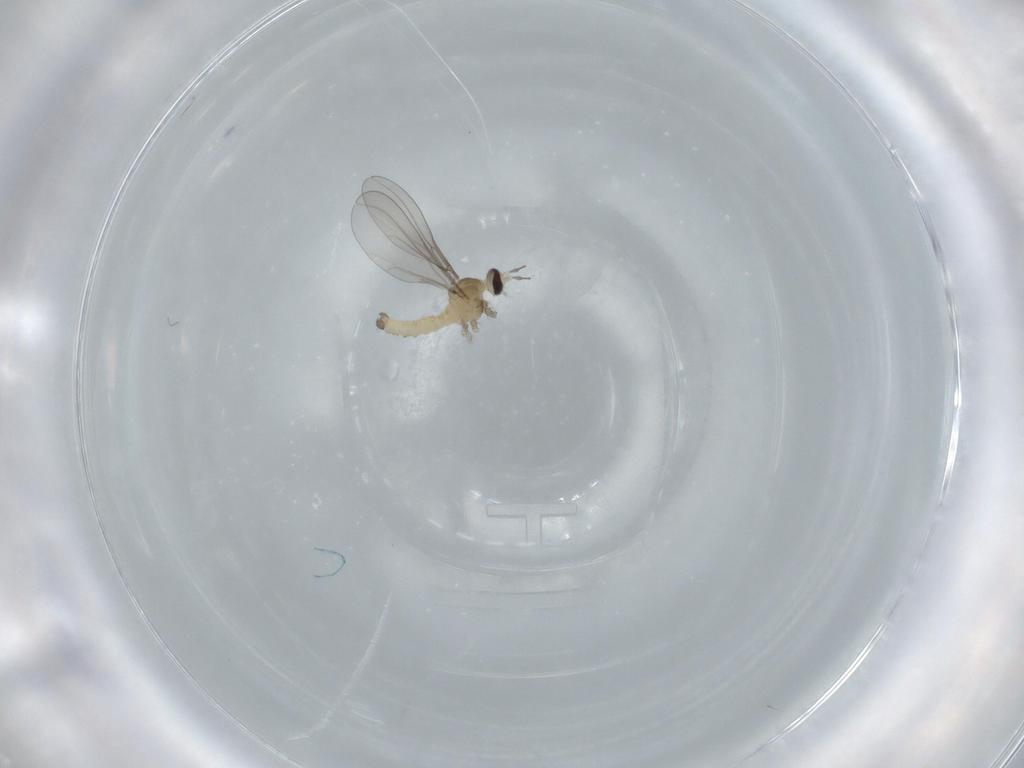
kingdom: Animalia
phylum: Arthropoda
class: Insecta
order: Diptera
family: Cecidomyiidae
